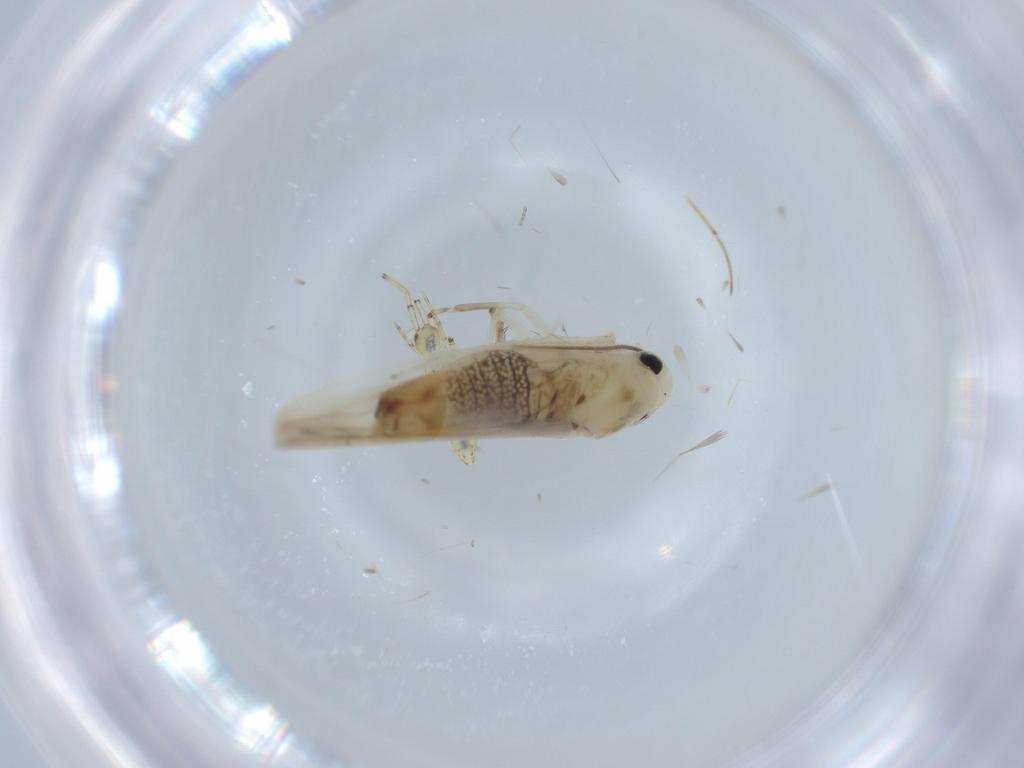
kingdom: Animalia
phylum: Arthropoda
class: Insecta
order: Hemiptera
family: Cicadellidae
